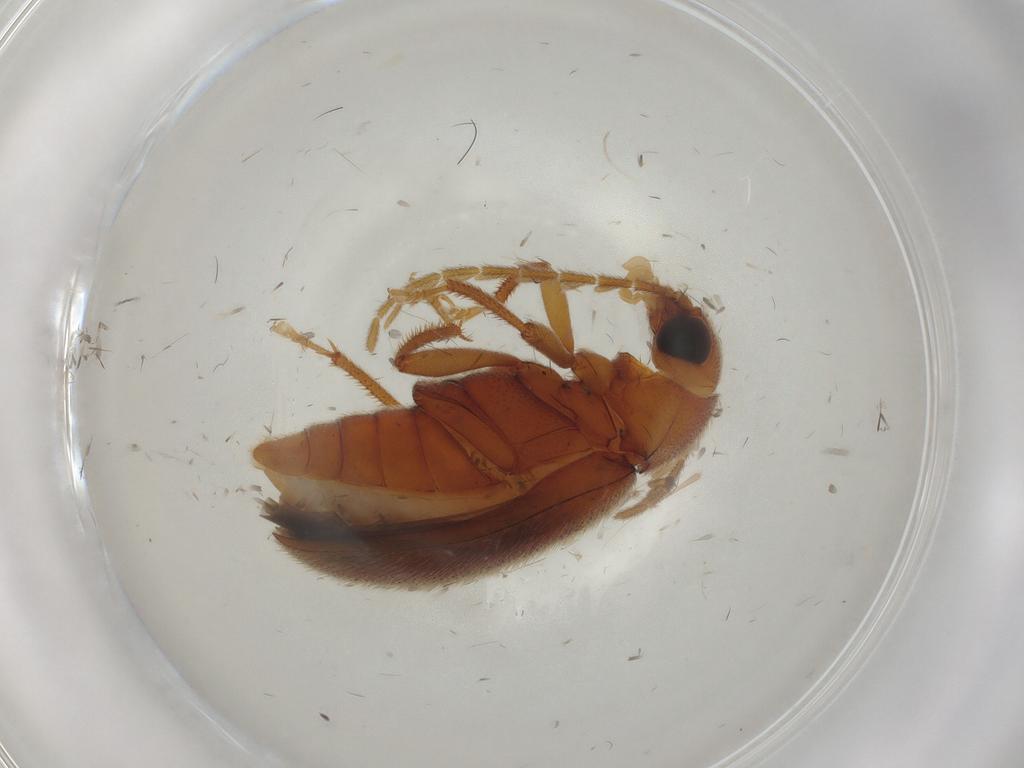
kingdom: Animalia
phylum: Arthropoda
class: Insecta
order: Coleoptera
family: Ptilodactylidae
